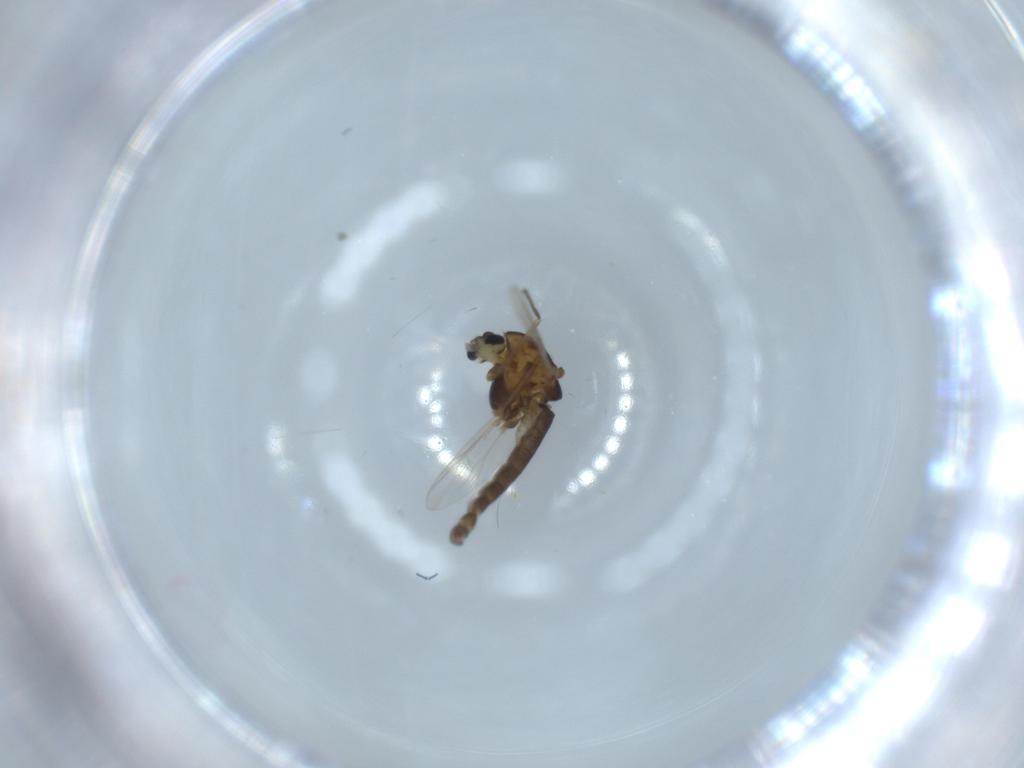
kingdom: Animalia
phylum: Arthropoda
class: Insecta
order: Diptera
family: Chironomidae
